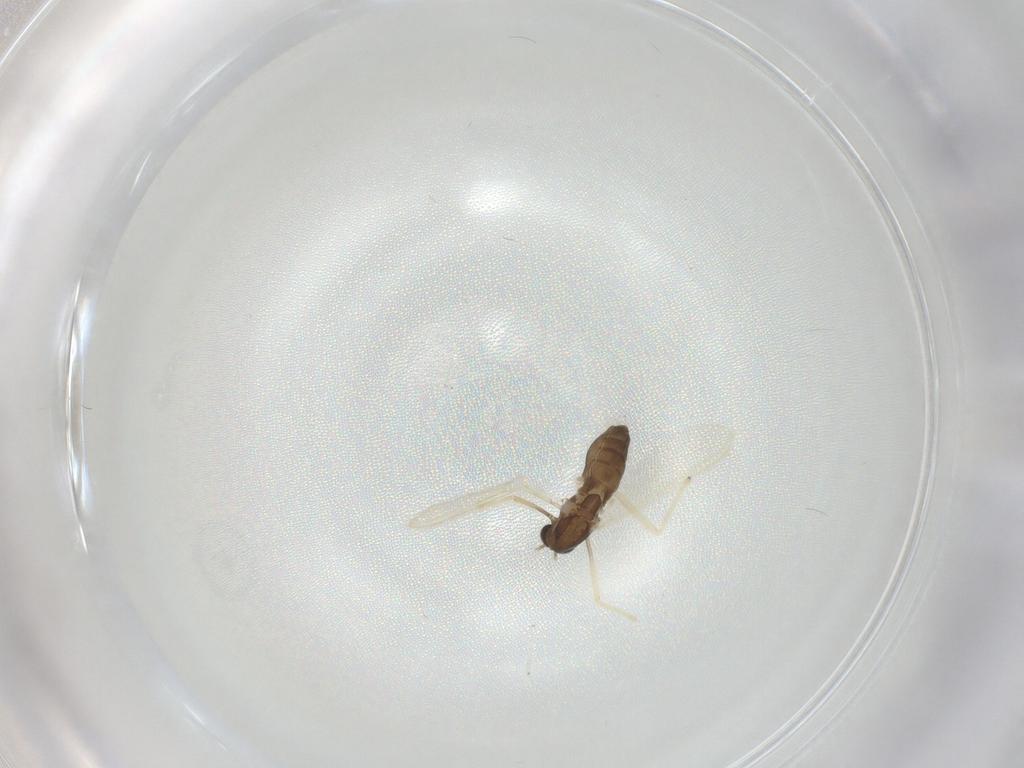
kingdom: Animalia
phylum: Arthropoda
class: Insecta
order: Diptera
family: Chironomidae
